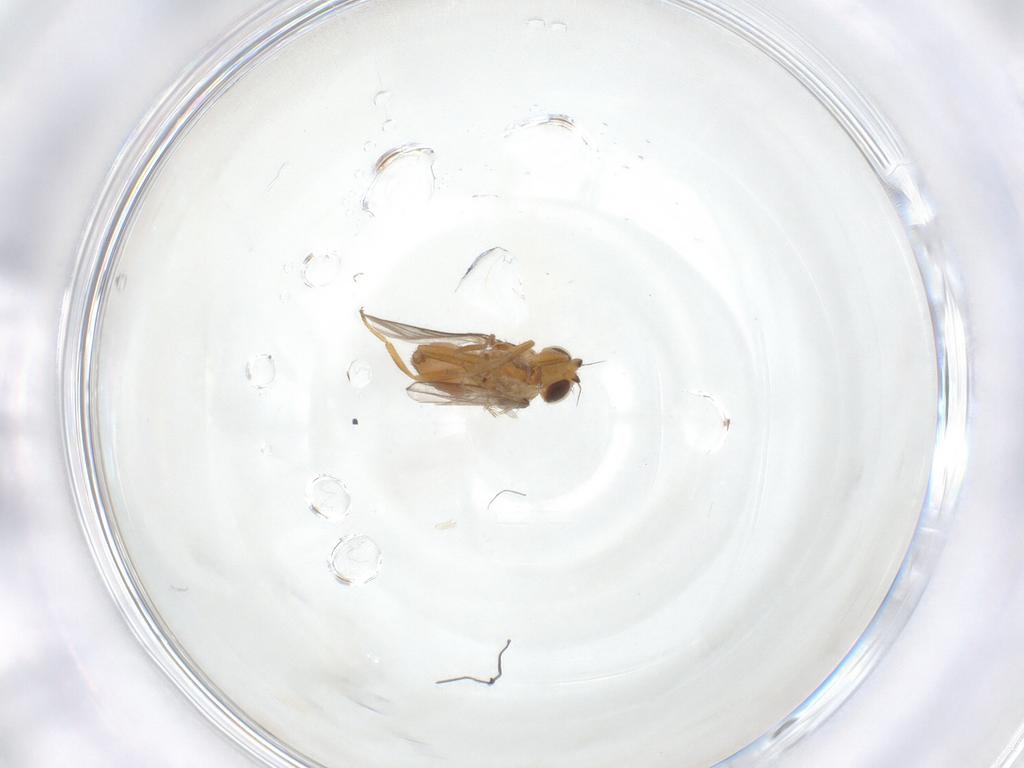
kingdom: Animalia
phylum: Arthropoda
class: Insecta
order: Diptera
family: Chloropidae
